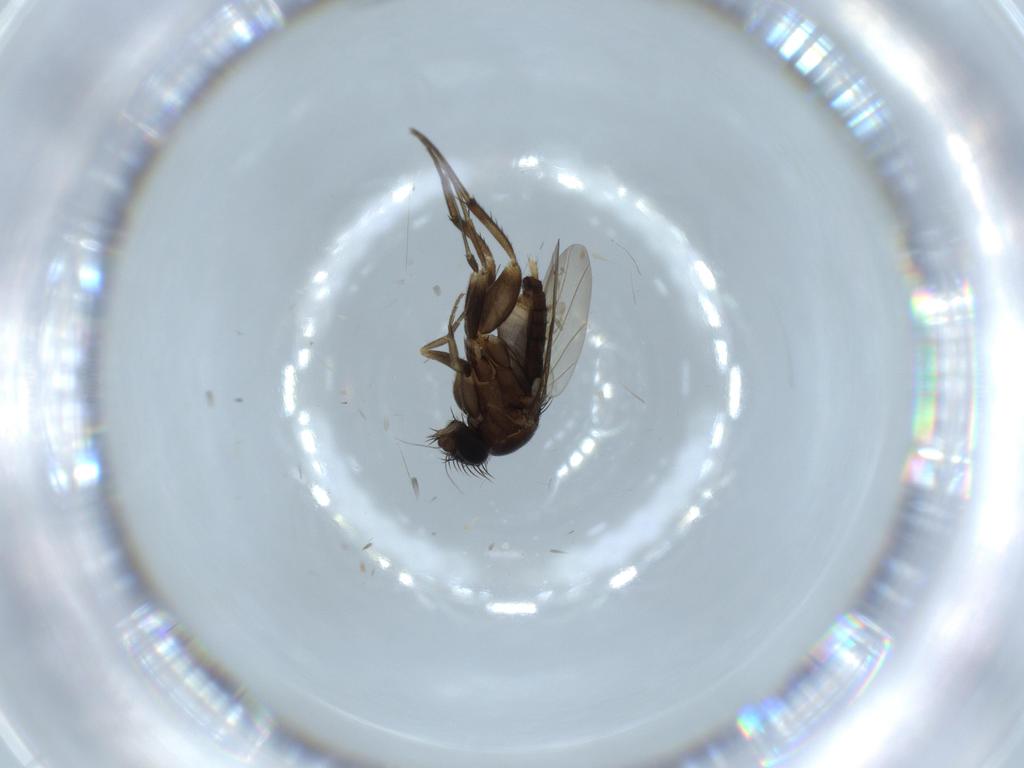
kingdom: Animalia
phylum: Arthropoda
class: Insecta
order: Diptera
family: Phoridae
